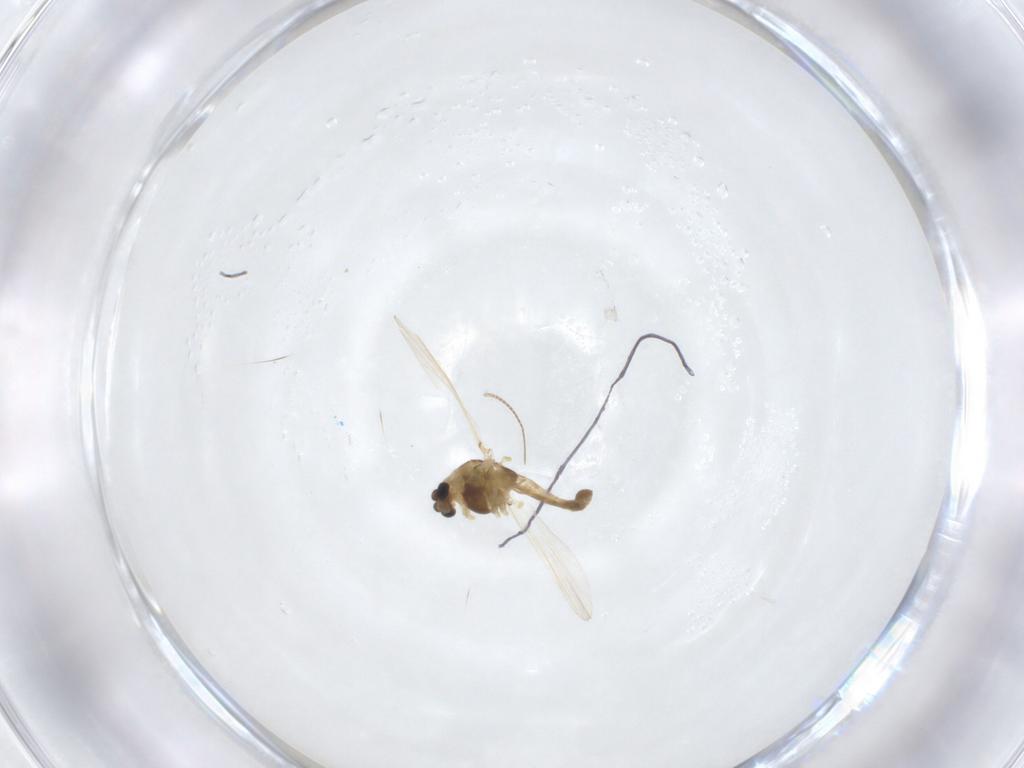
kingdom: Animalia
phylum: Arthropoda
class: Insecta
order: Diptera
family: Chironomidae
